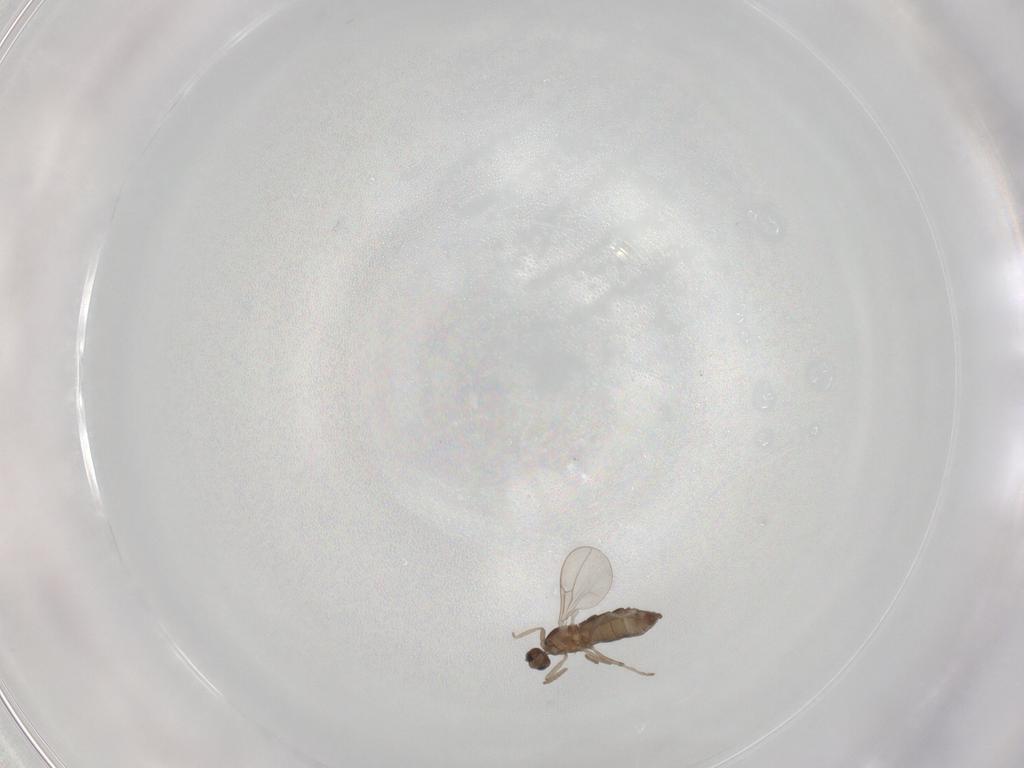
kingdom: Animalia
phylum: Arthropoda
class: Insecta
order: Diptera
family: Cecidomyiidae
